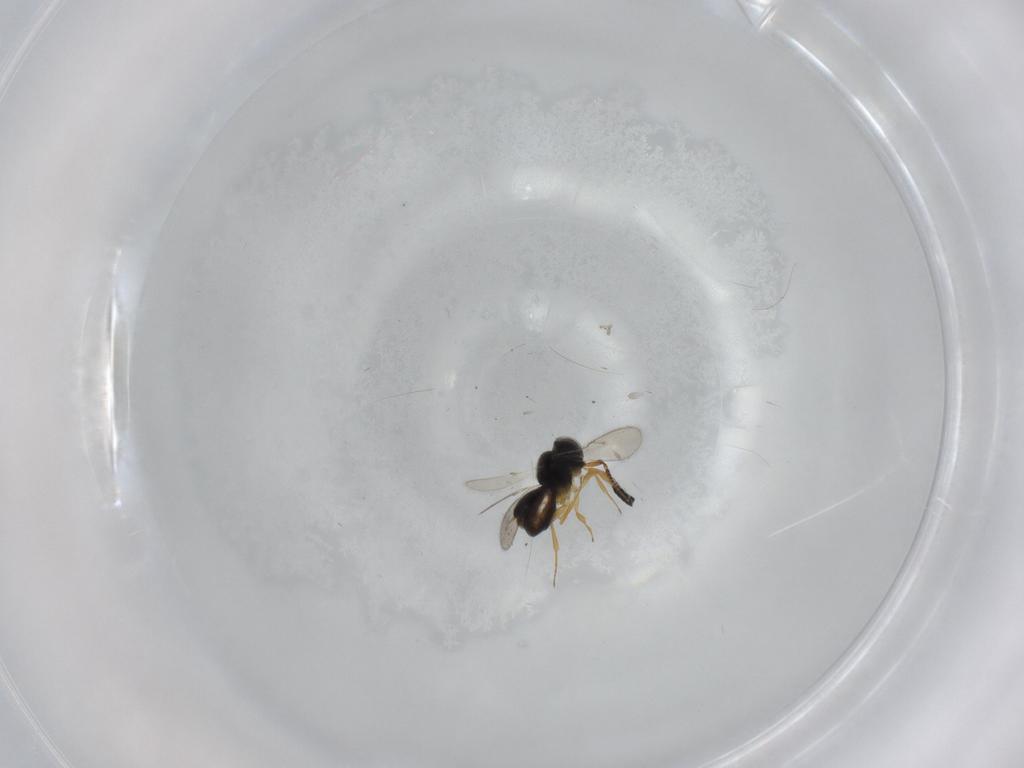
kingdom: Animalia
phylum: Arthropoda
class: Insecta
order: Hymenoptera
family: Scelionidae
